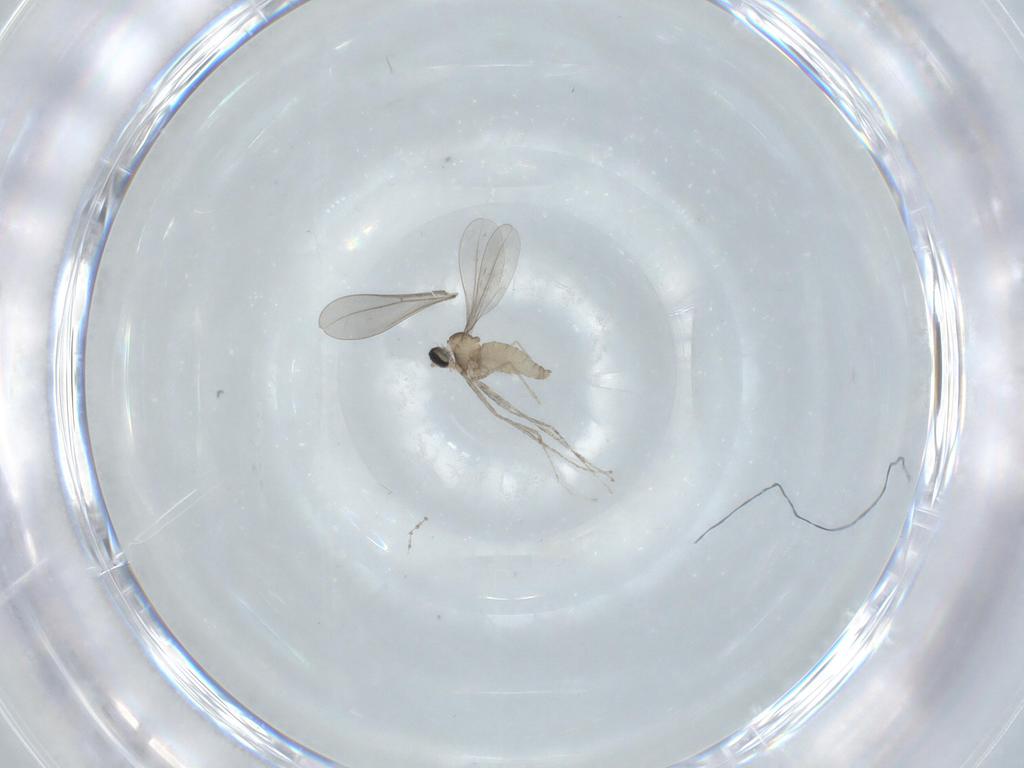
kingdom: Animalia
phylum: Arthropoda
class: Insecta
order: Diptera
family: Cecidomyiidae
